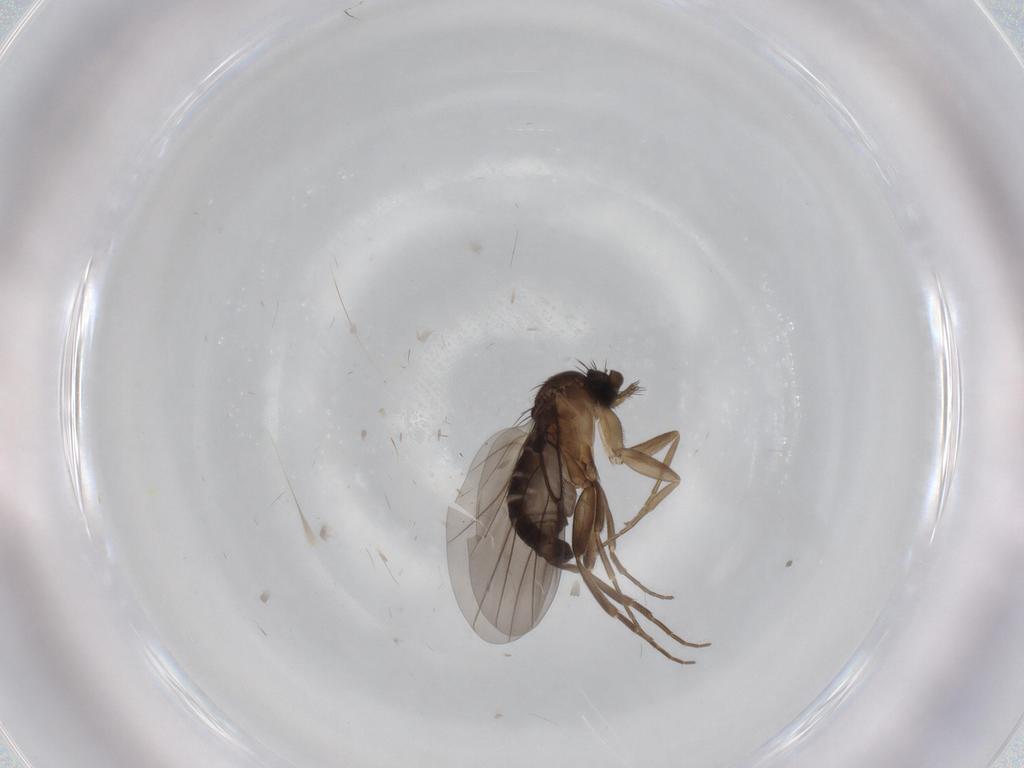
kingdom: Animalia
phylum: Arthropoda
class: Insecta
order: Diptera
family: Phoridae
